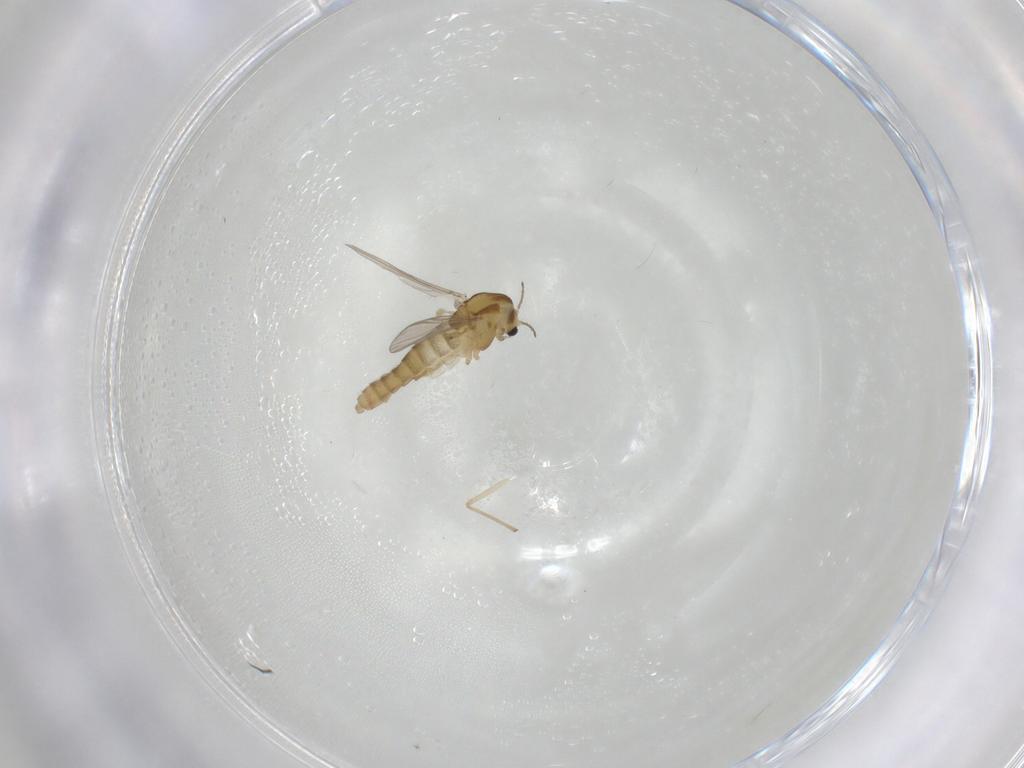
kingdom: Animalia
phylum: Arthropoda
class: Insecta
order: Diptera
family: Chironomidae
